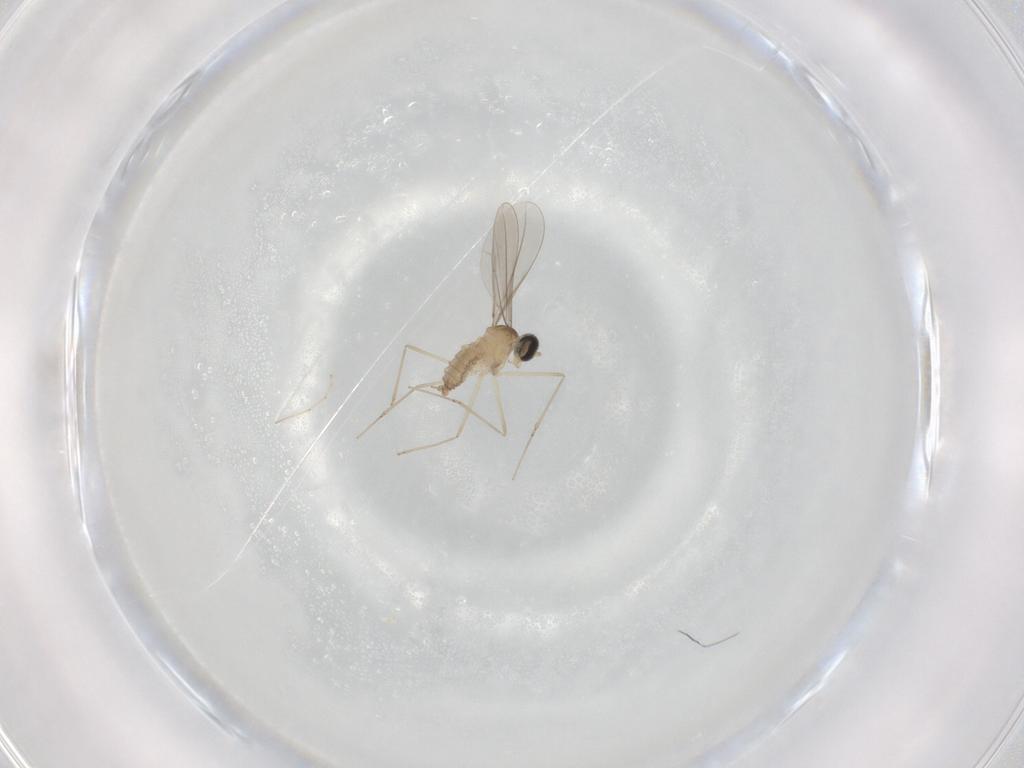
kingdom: Animalia
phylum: Arthropoda
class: Insecta
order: Diptera
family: Cecidomyiidae
